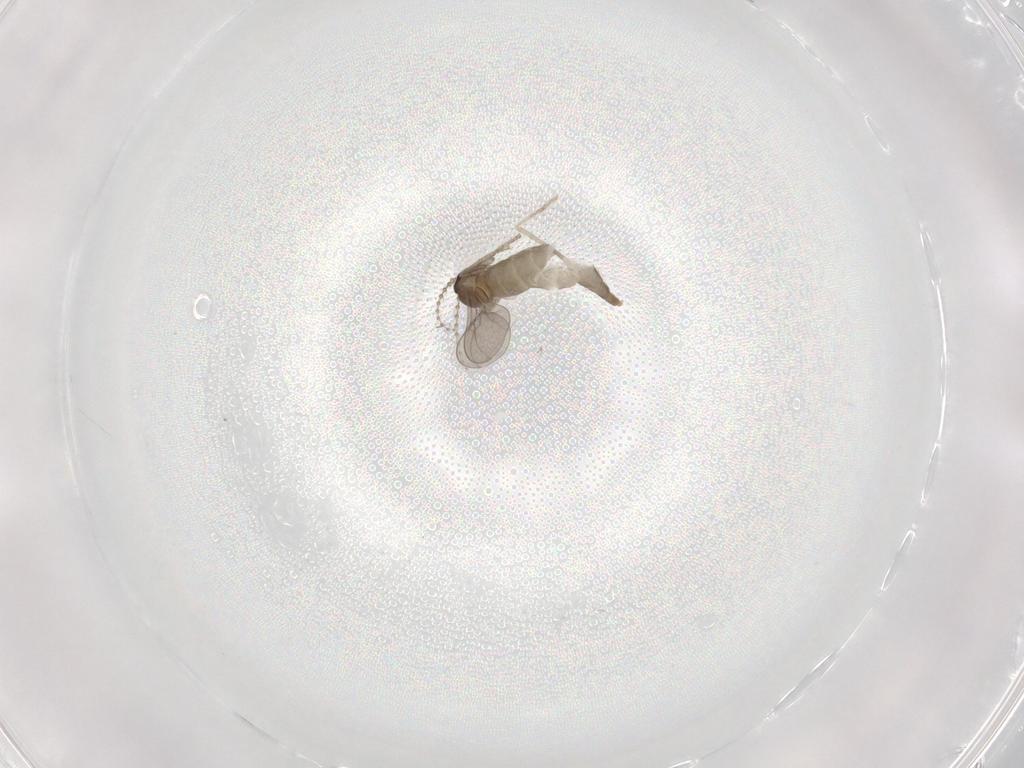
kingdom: Animalia
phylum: Arthropoda
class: Insecta
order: Diptera
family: Cecidomyiidae
